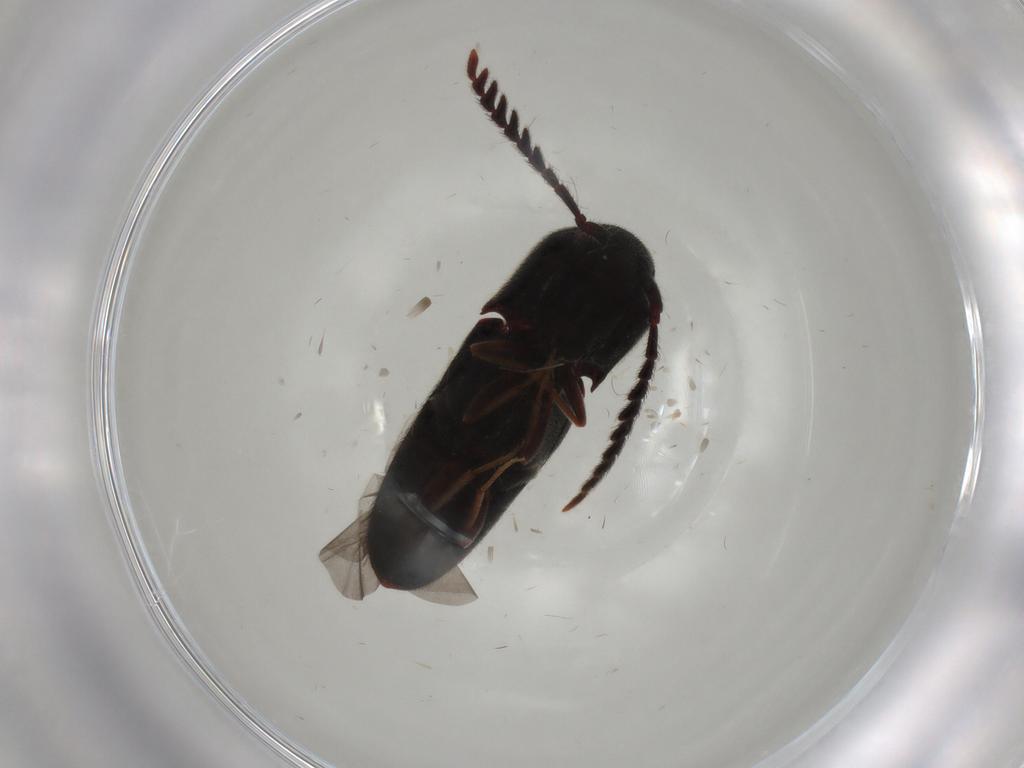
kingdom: Animalia
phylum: Arthropoda
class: Insecta
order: Coleoptera
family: Eucnemidae
